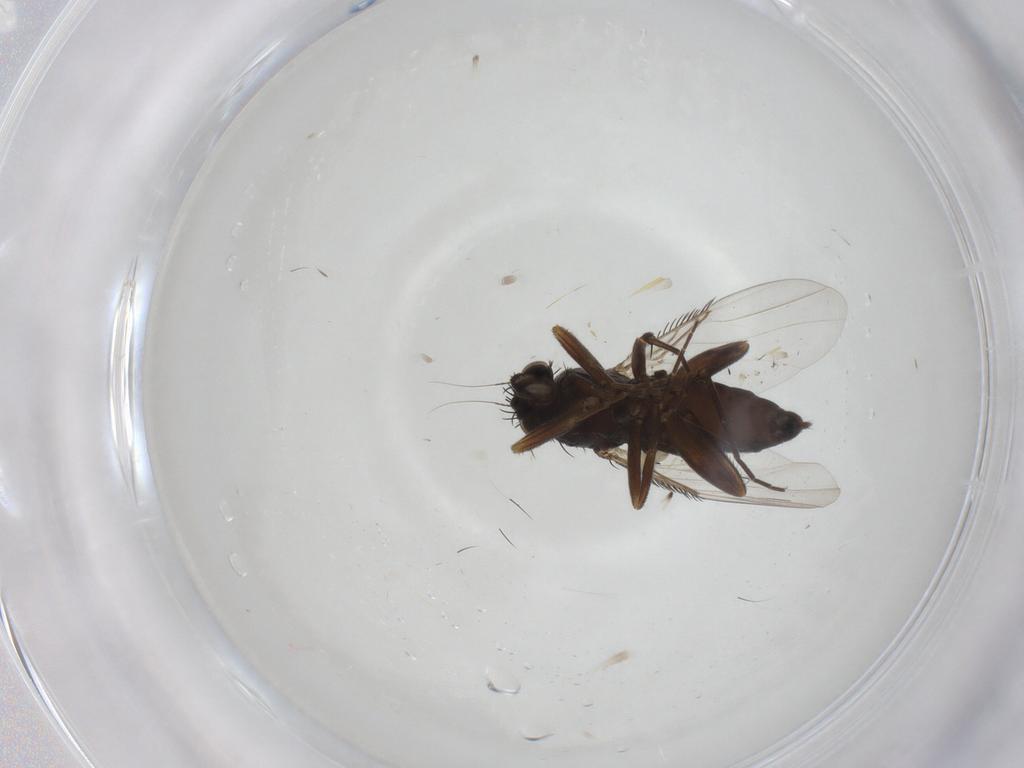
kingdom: Animalia
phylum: Arthropoda
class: Insecta
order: Diptera
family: Phoridae
